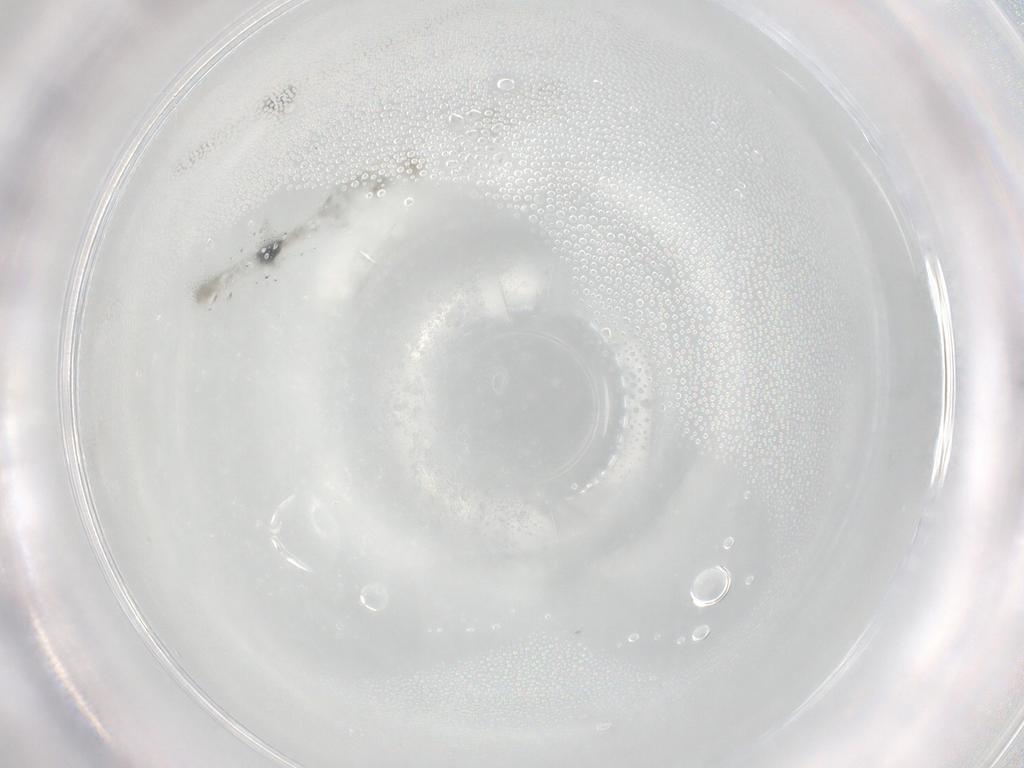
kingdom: Animalia
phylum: Arthropoda
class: Insecta
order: Diptera
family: Ceratopogonidae
